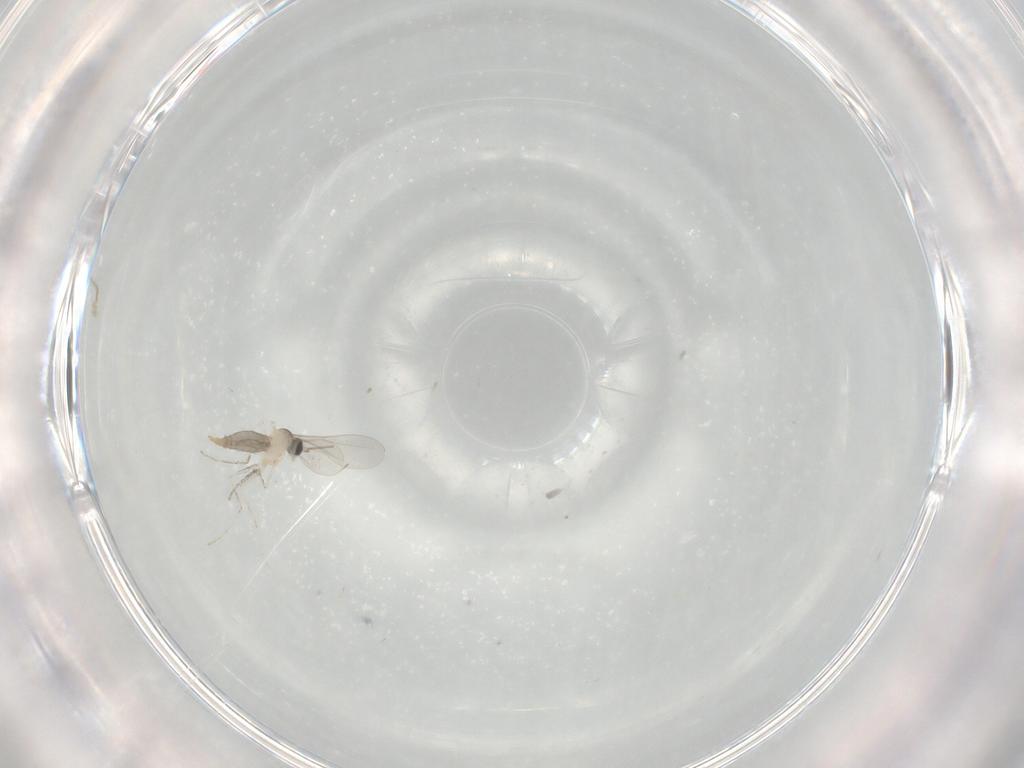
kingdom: Animalia
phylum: Arthropoda
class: Insecta
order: Diptera
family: Cecidomyiidae
